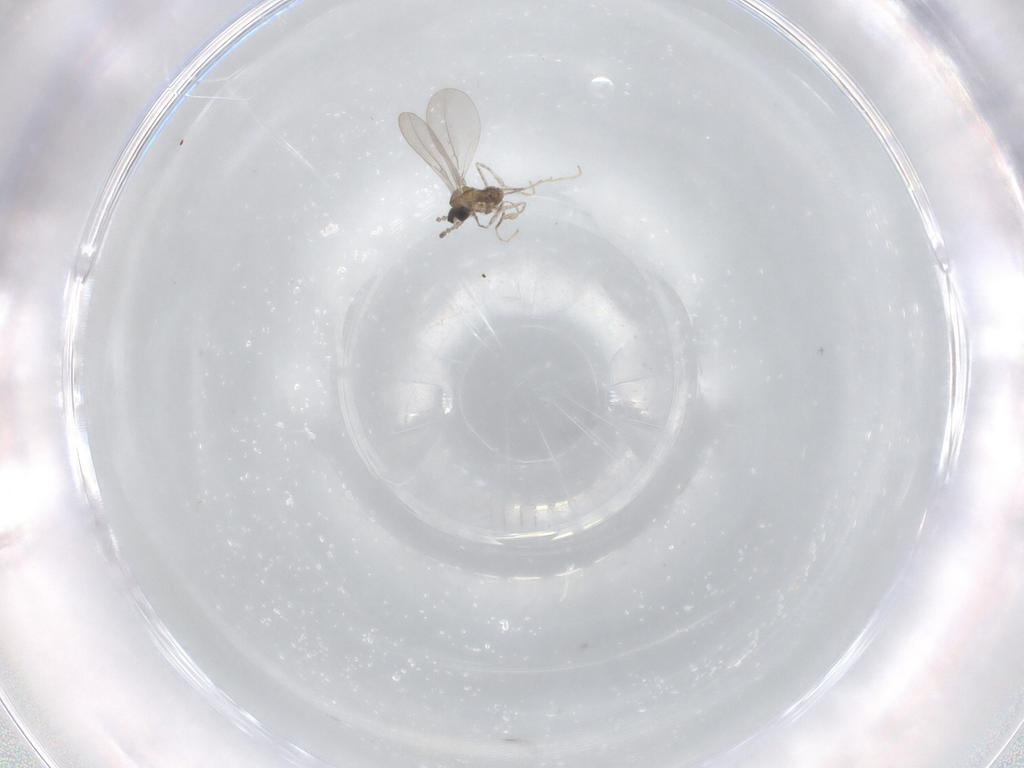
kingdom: Animalia
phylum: Arthropoda
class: Insecta
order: Diptera
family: Cecidomyiidae
